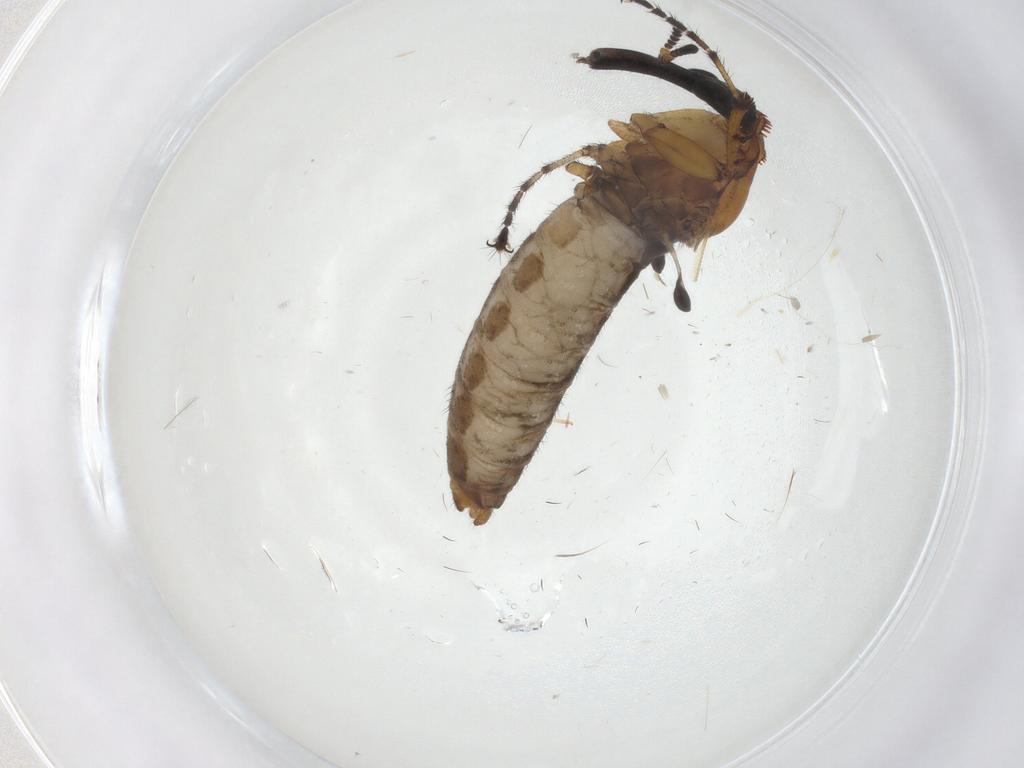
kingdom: Animalia
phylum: Arthropoda
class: Insecta
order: Diptera
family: Bibionidae
